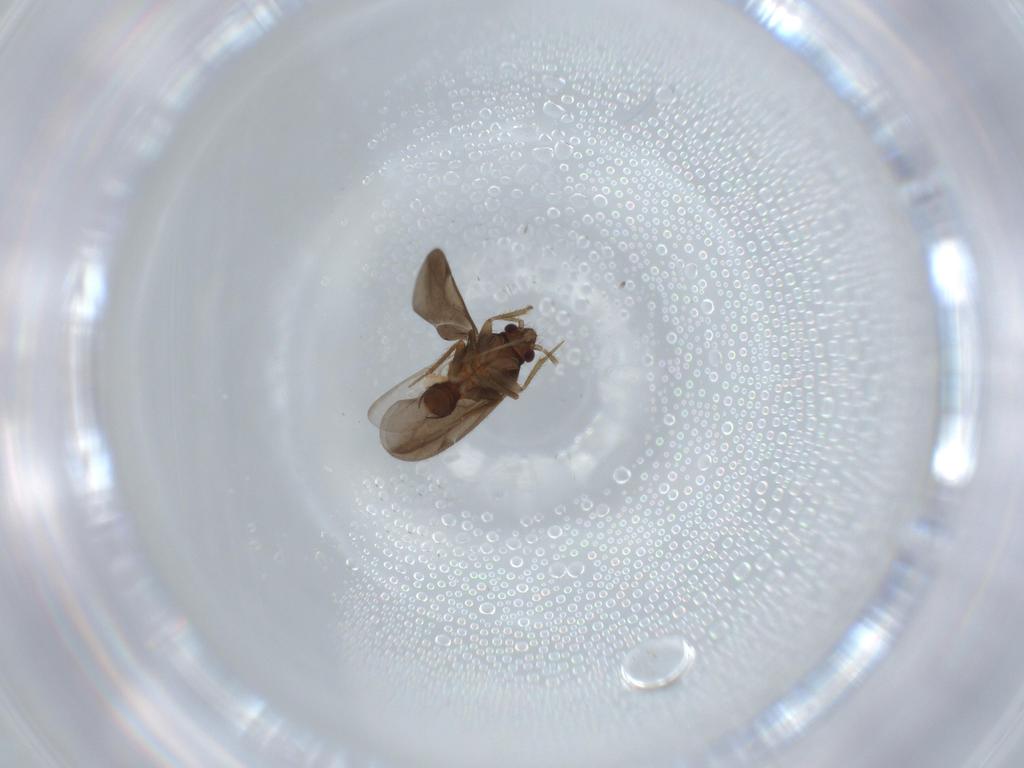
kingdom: Animalia
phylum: Arthropoda
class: Insecta
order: Hemiptera
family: Ceratocombidae
